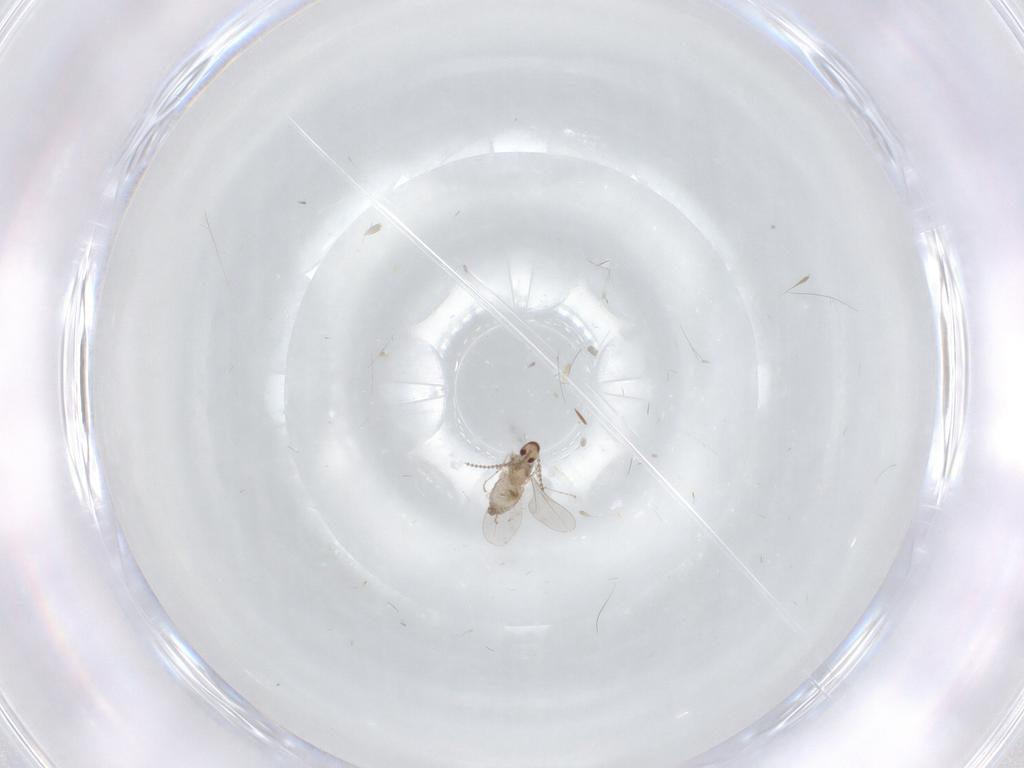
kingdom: Animalia
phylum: Arthropoda
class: Insecta
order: Diptera
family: Cecidomyiidae
